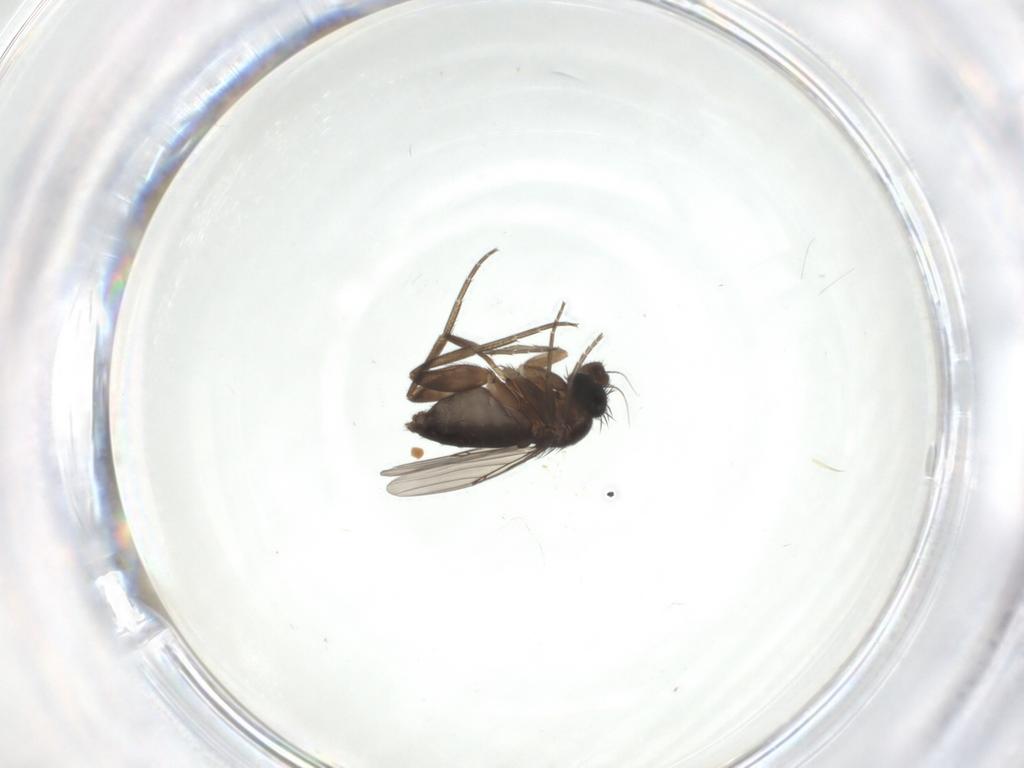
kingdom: Animalia
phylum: Arthropoda
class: Insecta
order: Diptera
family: Phoridae
